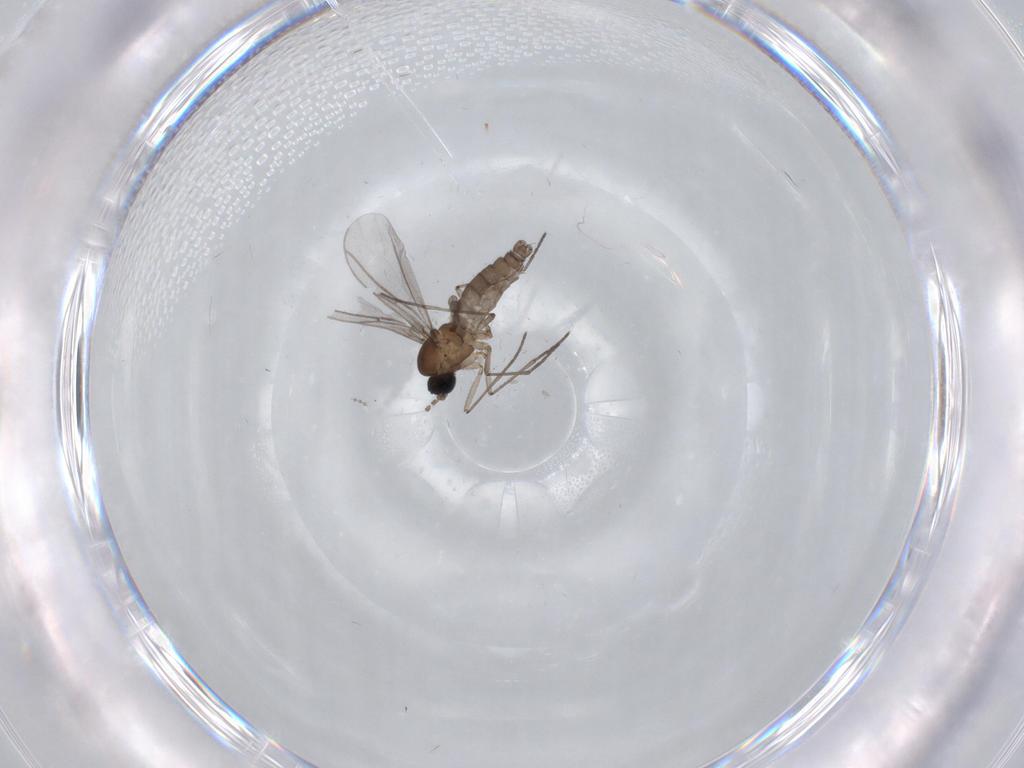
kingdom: Animalia
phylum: Arthropoda
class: Insecta
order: Diptera
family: Sciaridae
